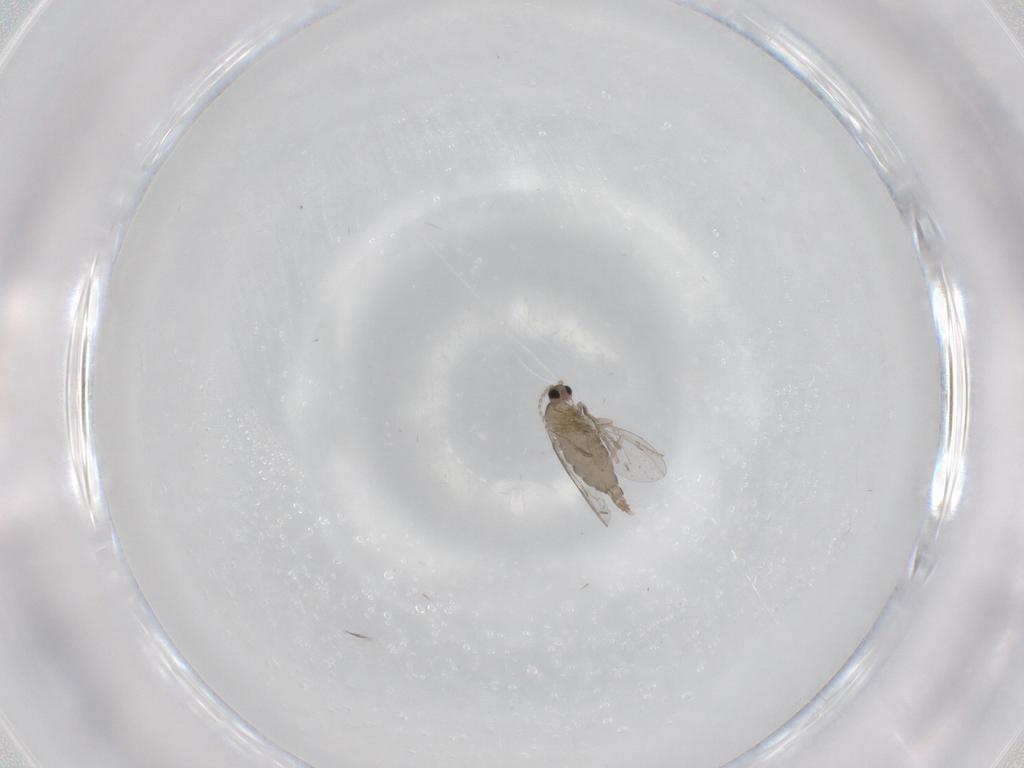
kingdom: Animalia
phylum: Arthropoda
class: Insecta
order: Diptera
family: Cecidomyiidae
